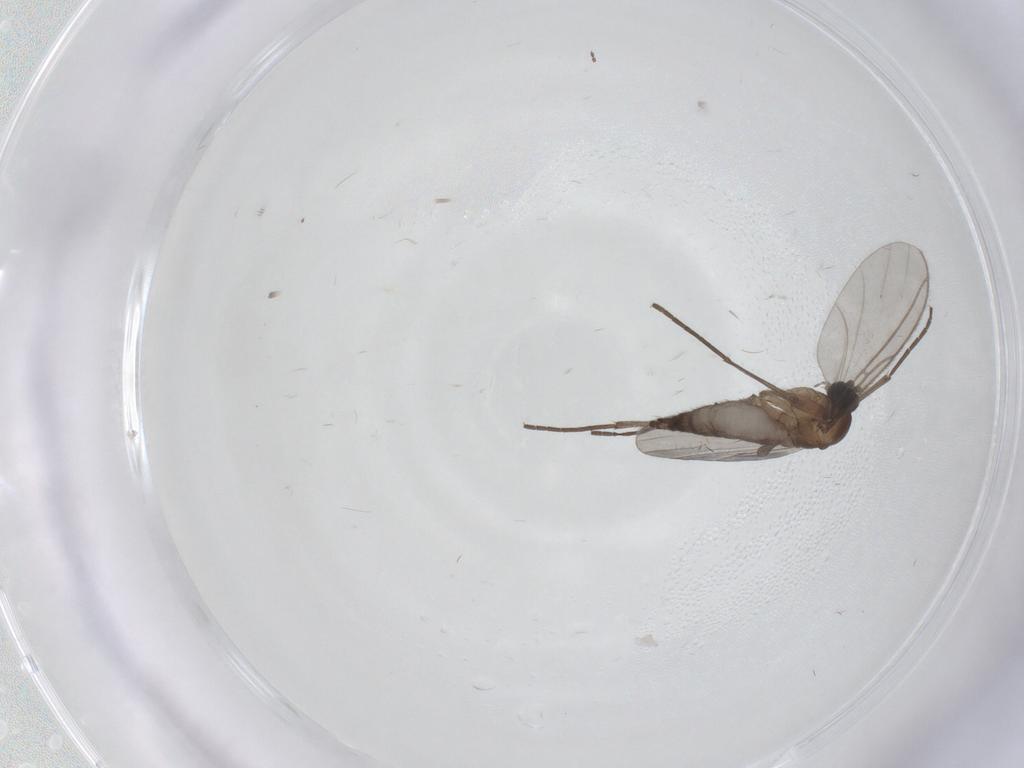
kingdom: Animalia
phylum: Arthropoda
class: Insecta
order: Diptera
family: Sciaridae
